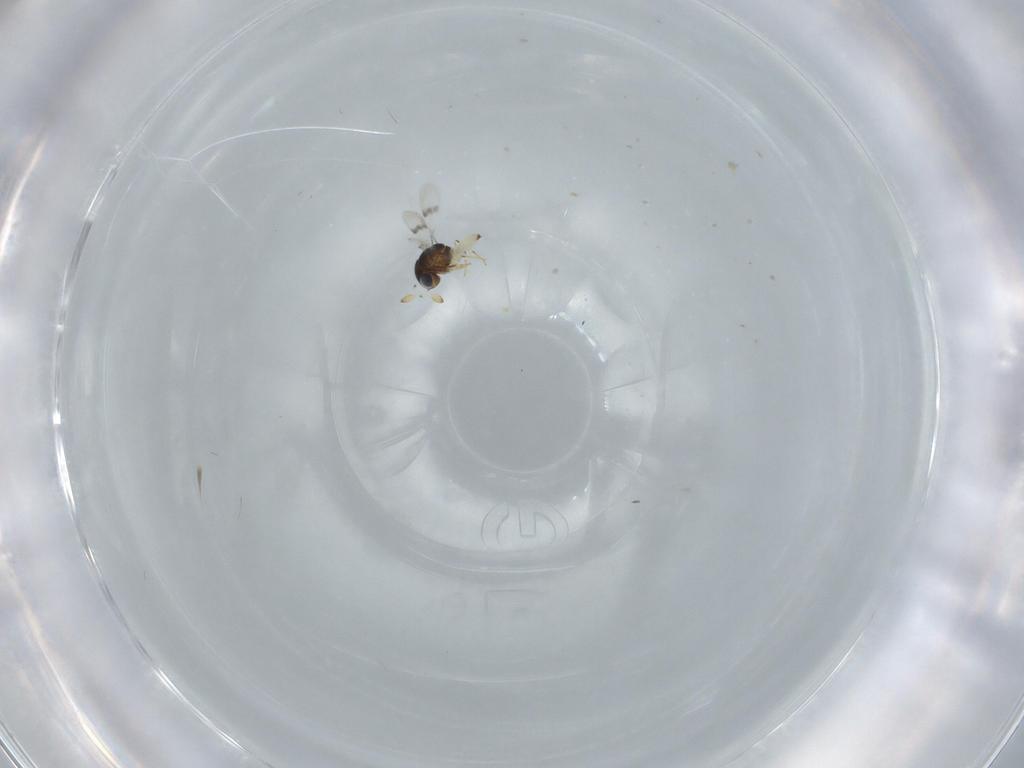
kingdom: Animalia
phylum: Arthropoda
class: Insecta
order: Hymenoptera
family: Scelionidae
